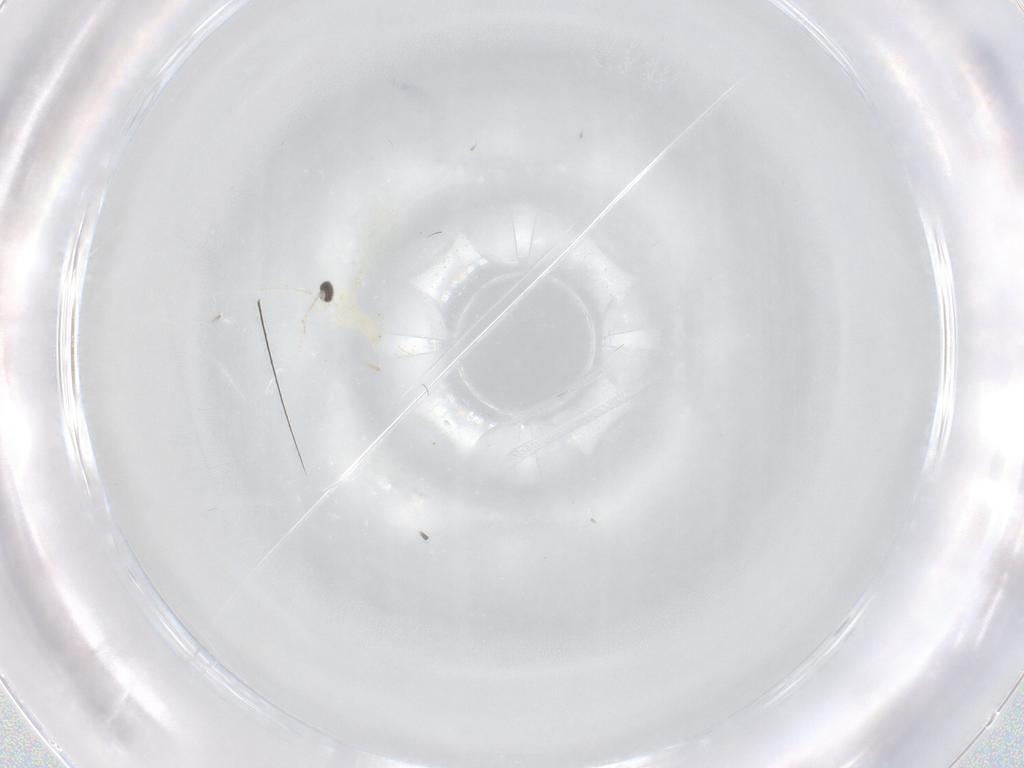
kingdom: Animalia
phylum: Arthropoda
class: Insecta
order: Diptera
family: Cecidomyiidae
